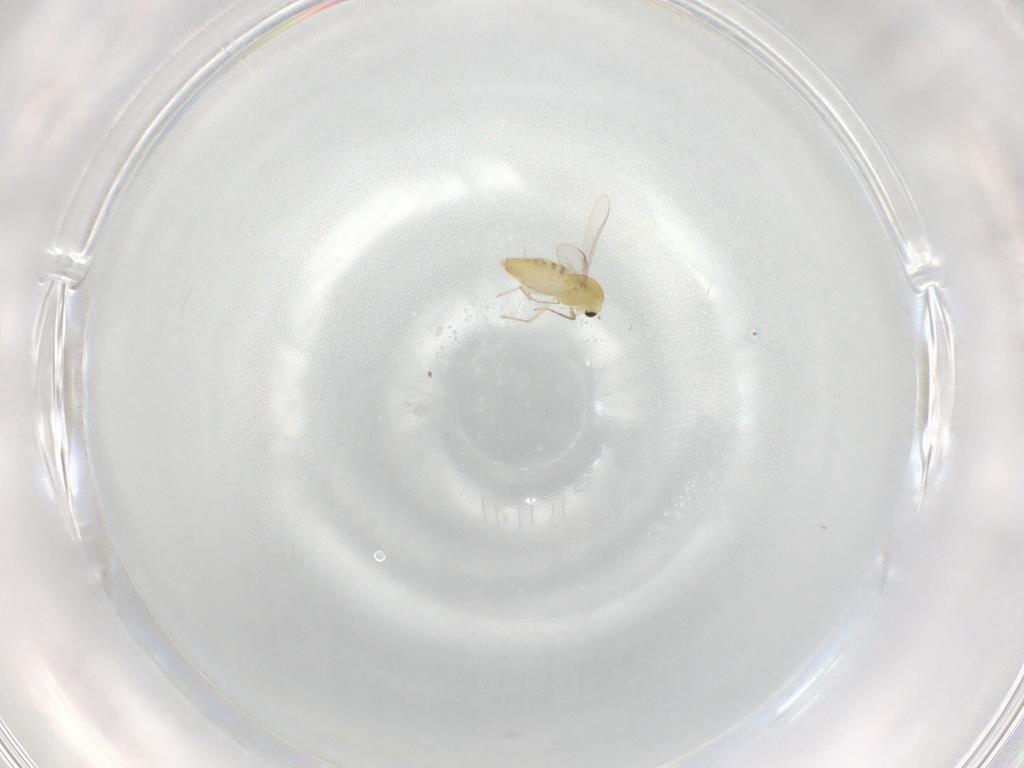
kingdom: Animalia
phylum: Arthropoda
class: Insecta
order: Diptera
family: Chironomidae
